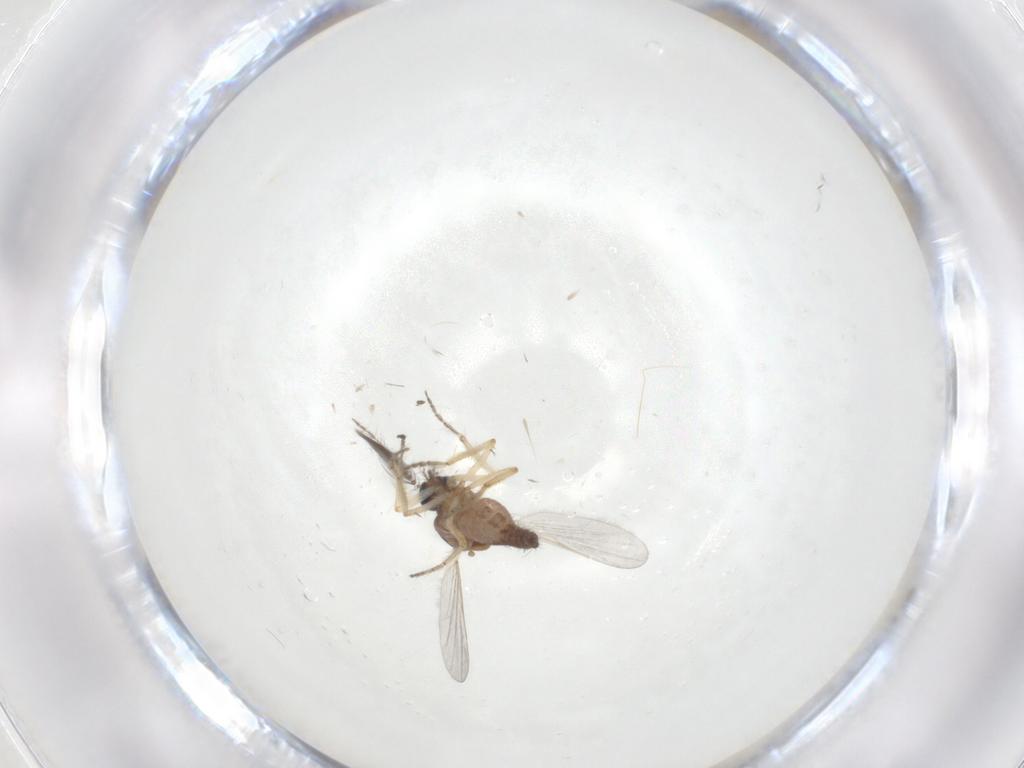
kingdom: Animalia
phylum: Arthropoda
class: Insecta
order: Diptera
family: Ceratopogonidae
